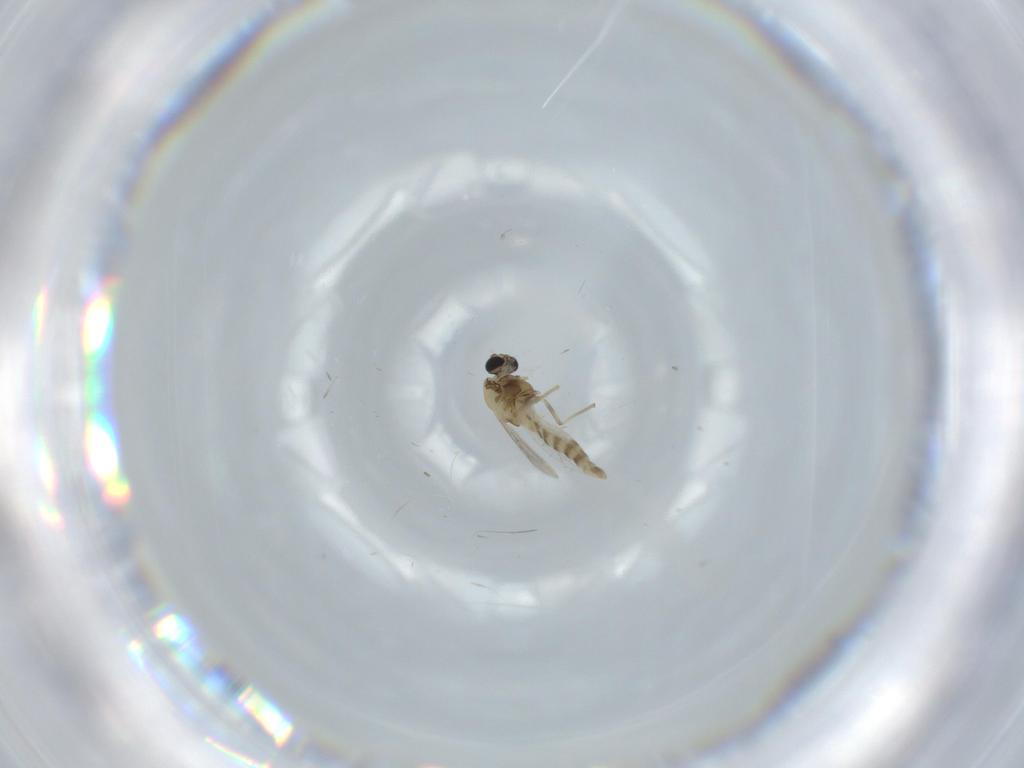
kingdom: Animalia
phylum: Arthropoda
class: Insecta
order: Diptera
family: Chironomidae
